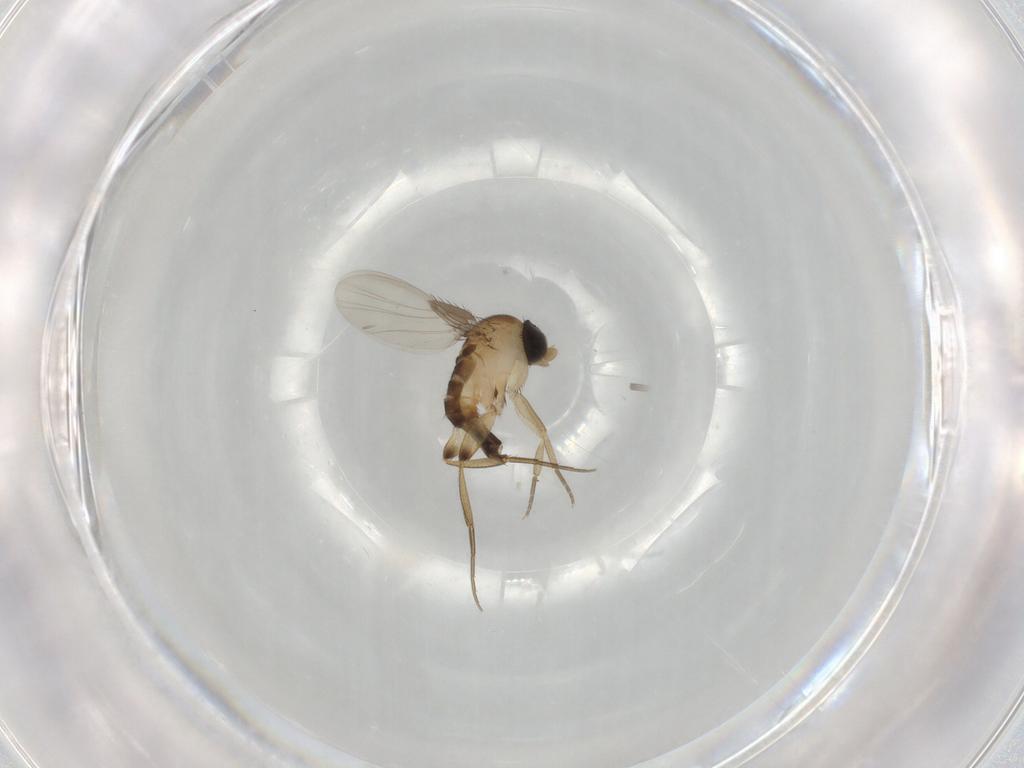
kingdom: Animalia
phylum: Arthropoda
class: Insecta
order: Diptera
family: Phoridae
